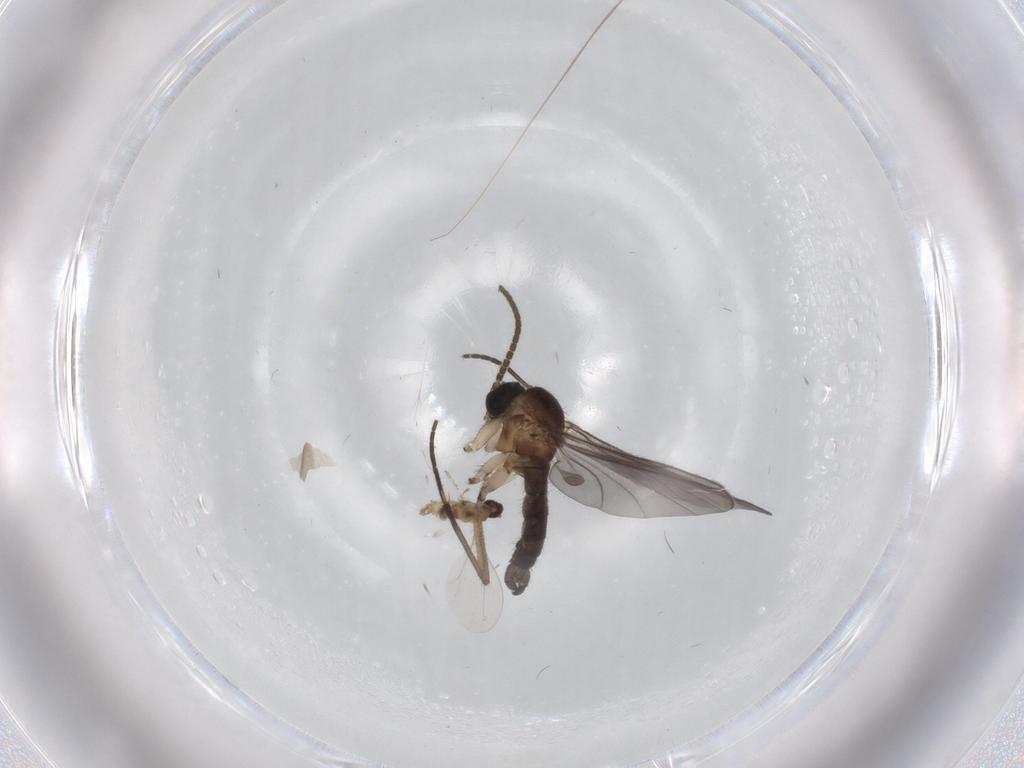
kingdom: Animalia
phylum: Arthropoda
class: Insecta
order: Diptera
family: Cecidomyiidae
